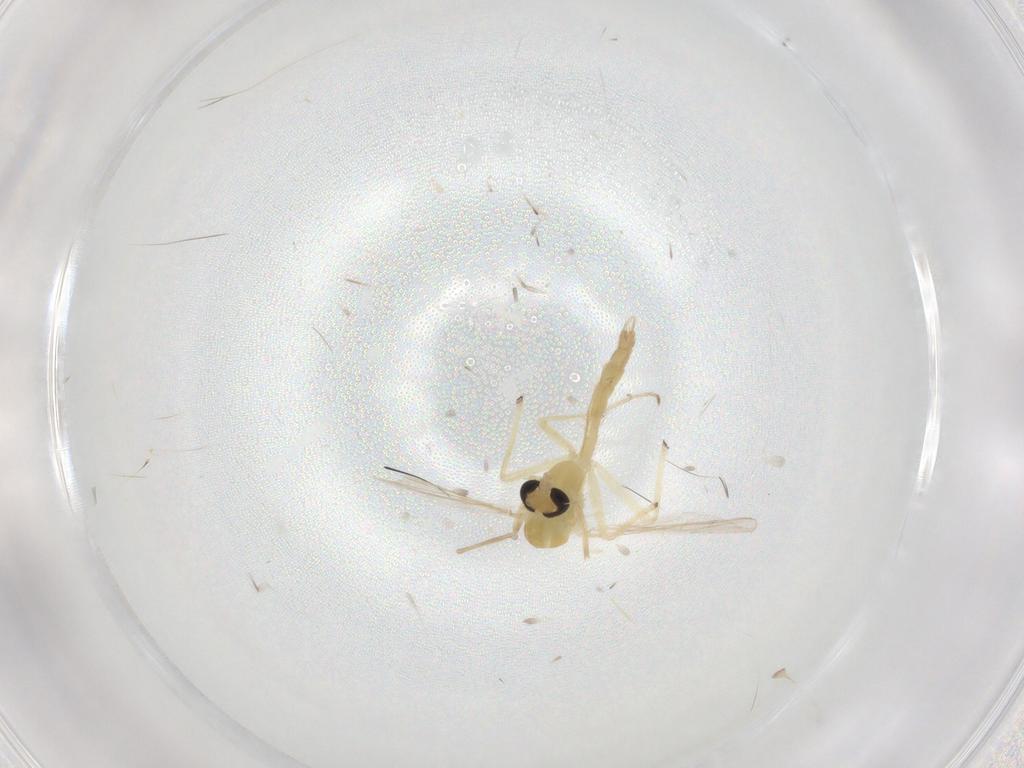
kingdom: Animalia
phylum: Arthropoda
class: Insecta
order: Diptera
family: Chironomidae
